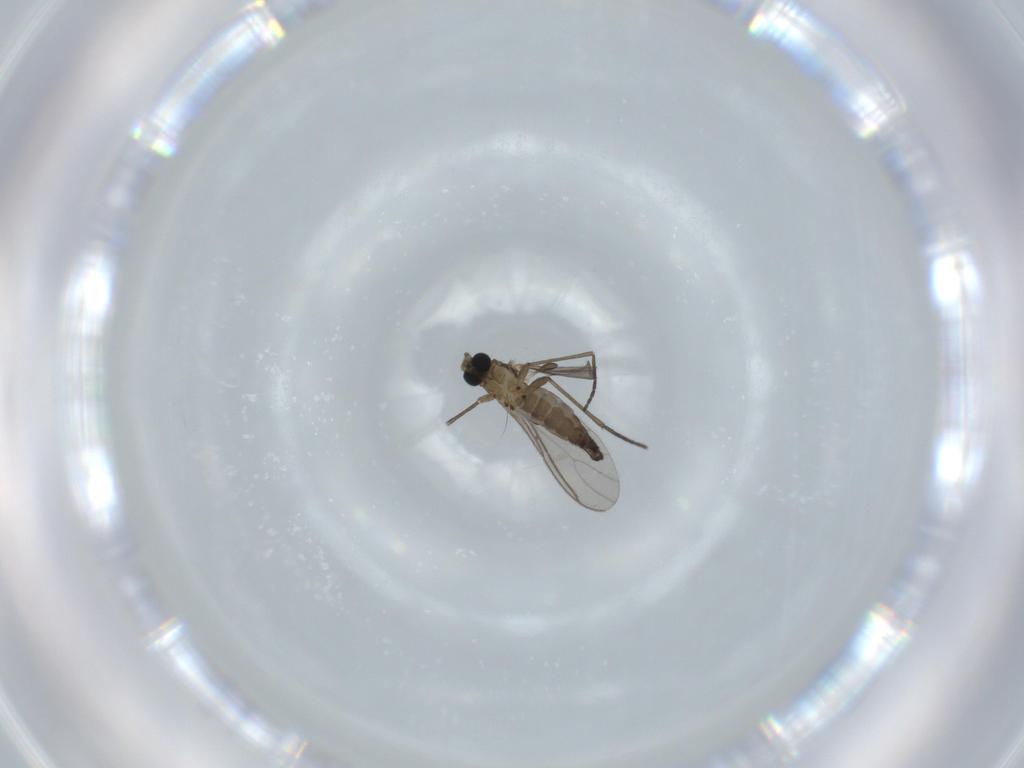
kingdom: Animalia
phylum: Arthropoda
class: Insecta
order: Diptera
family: Sciaridae
